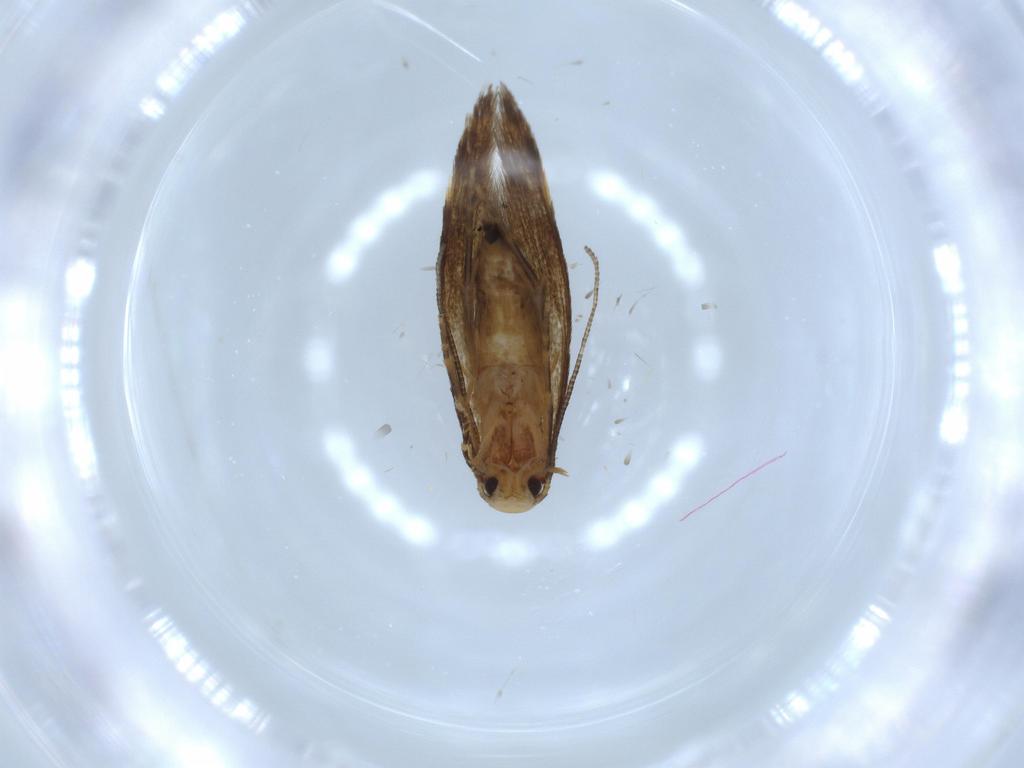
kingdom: Animalia
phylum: Arthropoda
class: Insecta
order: Lepidoptera
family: Tineidae
